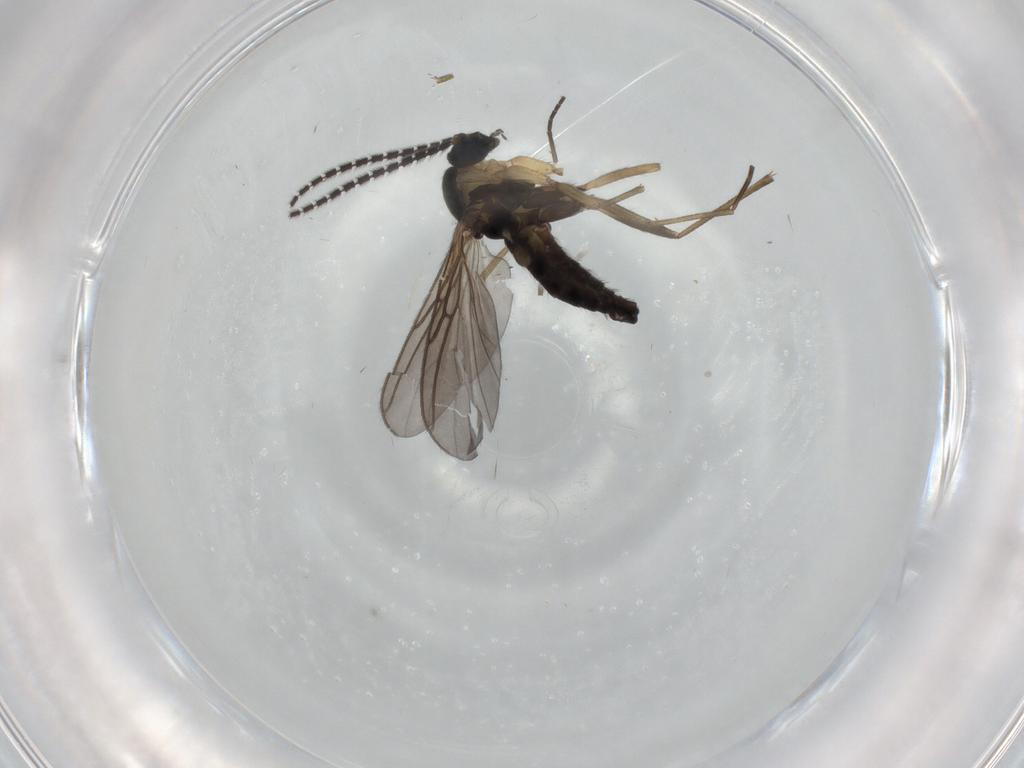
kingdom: Animalia
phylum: Arthropoda
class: Insecta
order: Diptera
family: Sciaridae
